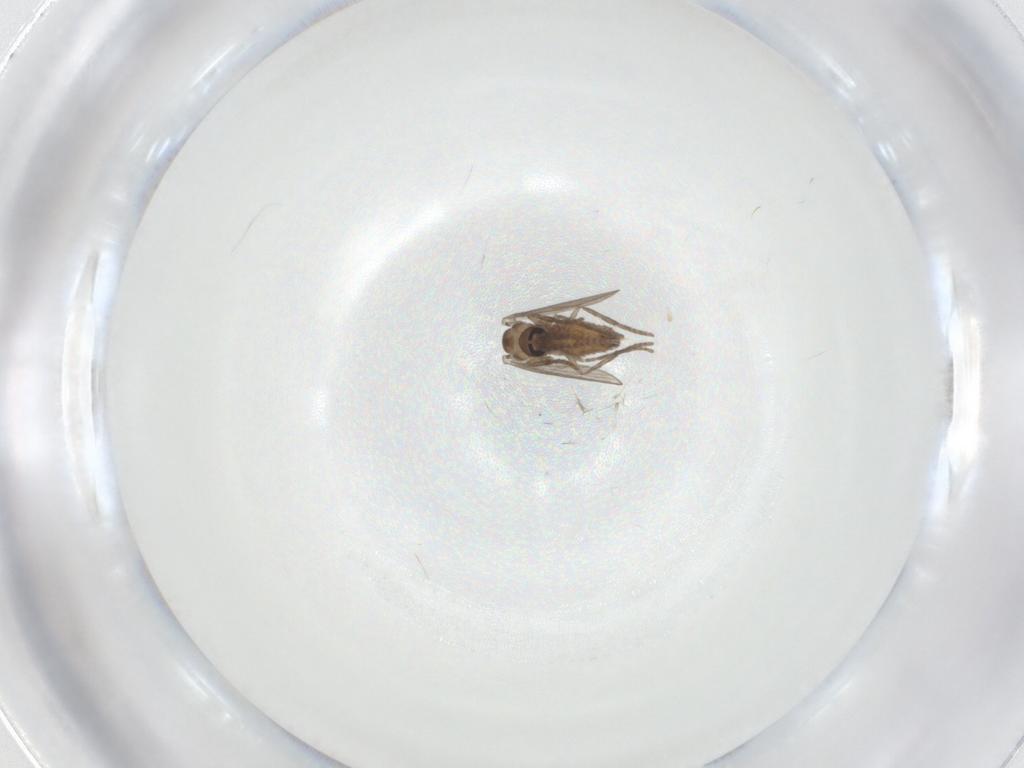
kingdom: Animalia
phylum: Arthropoda
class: Insecta
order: Diptera
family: Psychodidae
